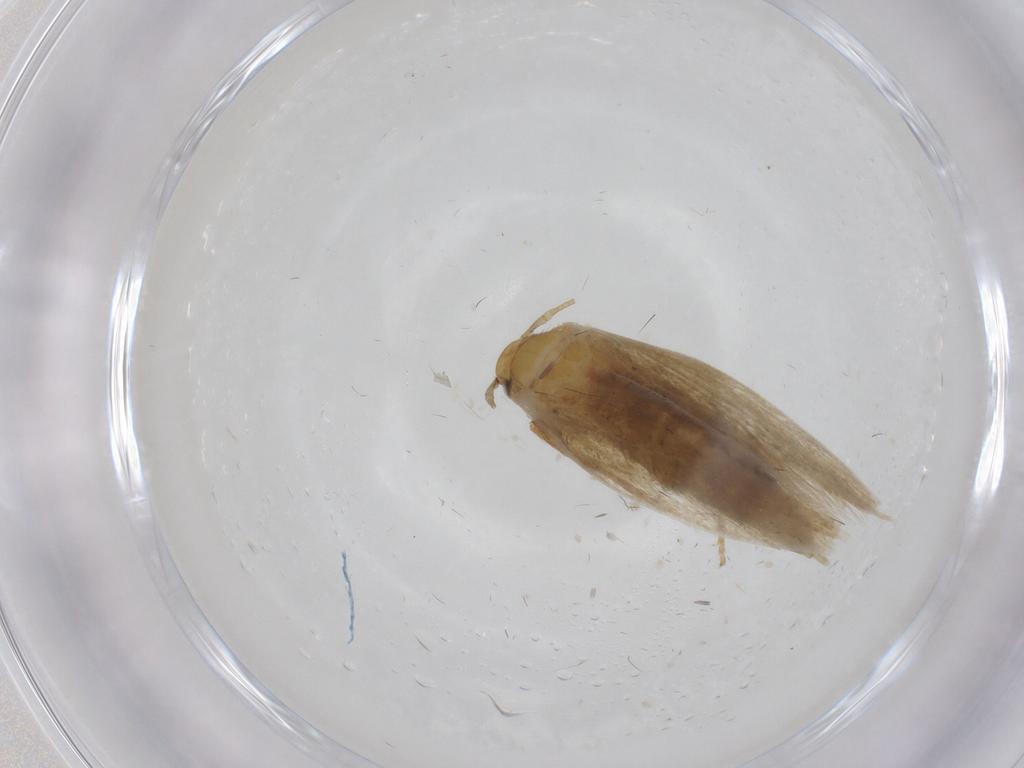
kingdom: Animalia
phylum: Arthropoda
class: Insecta
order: Lepidoptera
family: Tineidae
